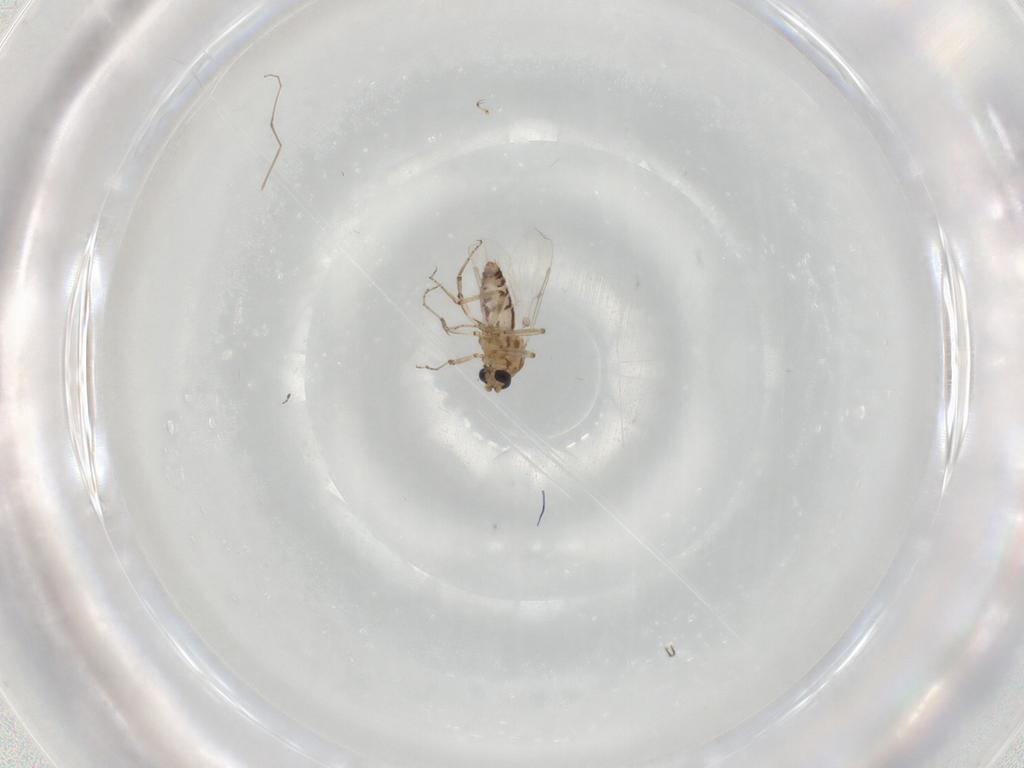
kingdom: Animalia
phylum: Arthropoda
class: Insecta
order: Diptera
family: Ceratopogonidae
